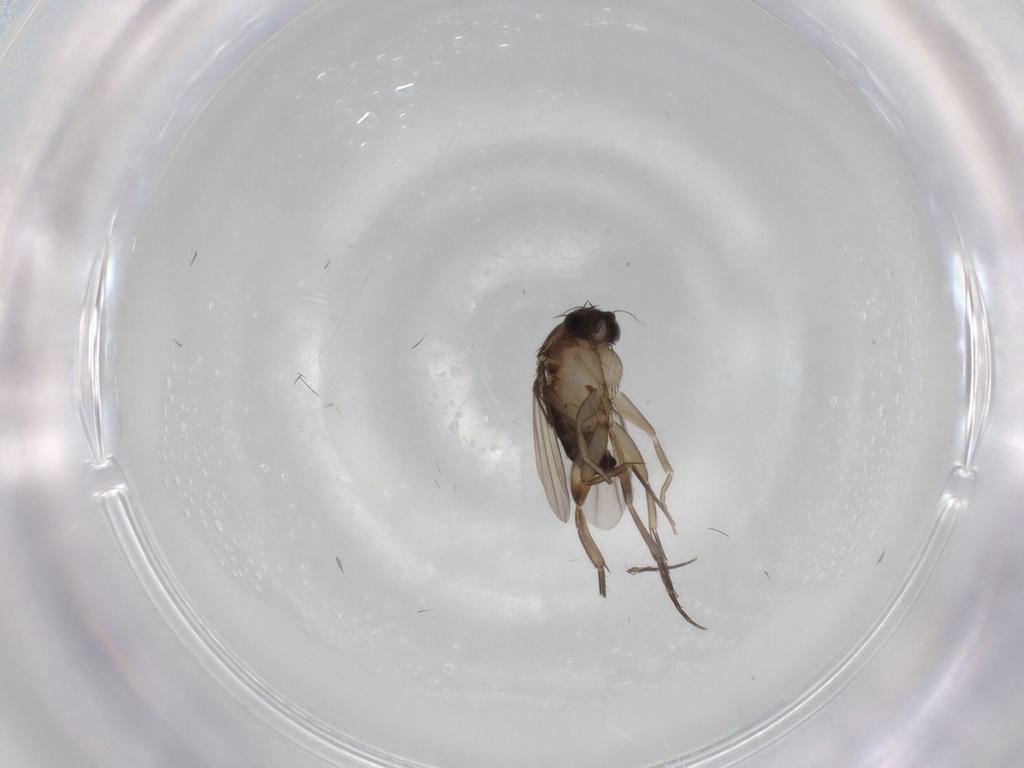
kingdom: Animalia
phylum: Arthropoda
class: Insecta
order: Diptera
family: Phoridae
